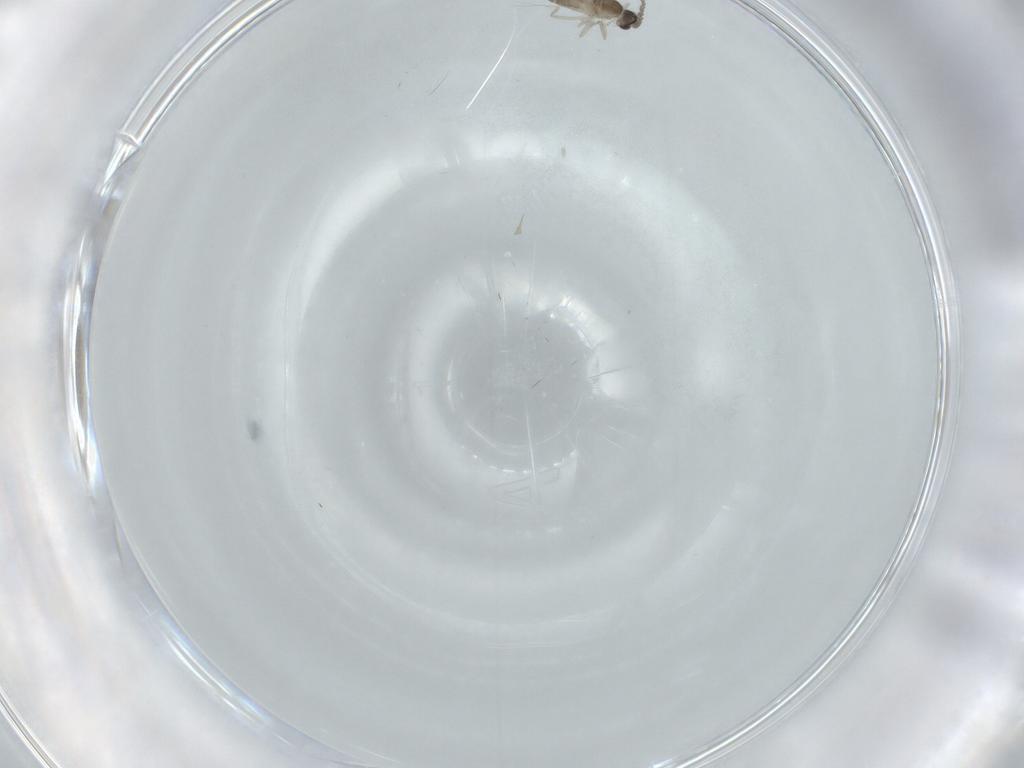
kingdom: Animalia
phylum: Arthropoda
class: Insecta
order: Diptera
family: Cecidomyiidae
